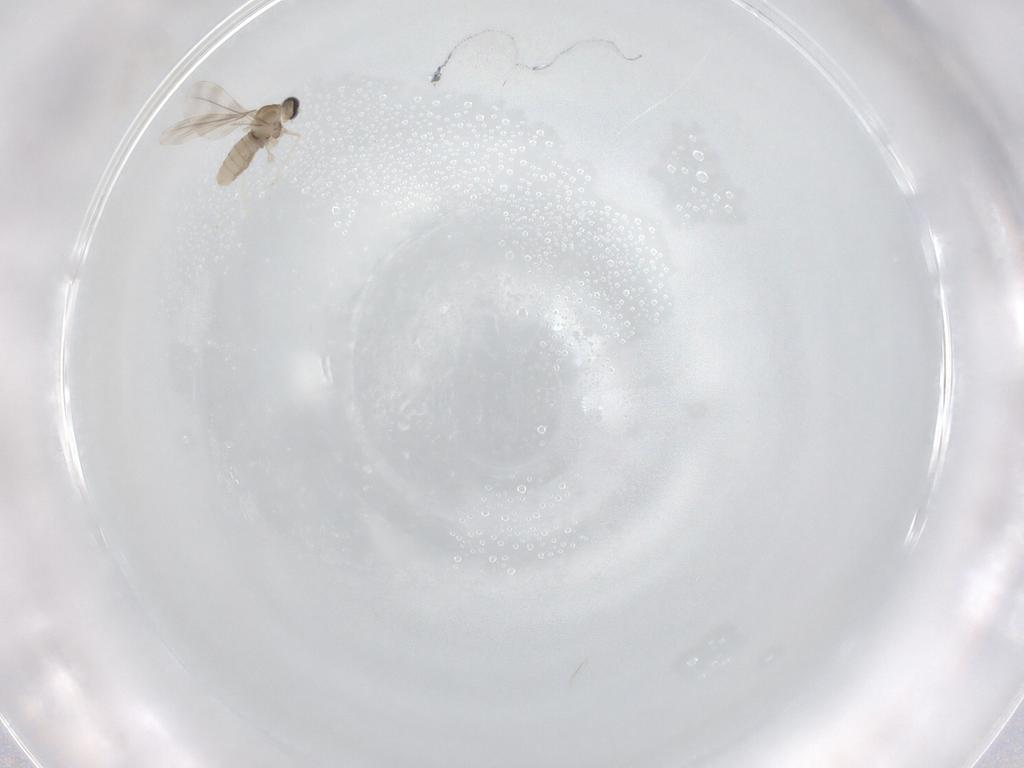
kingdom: Animalia
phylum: Arthropoda
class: Insecta
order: Diptera
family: Cecidomyiidae
